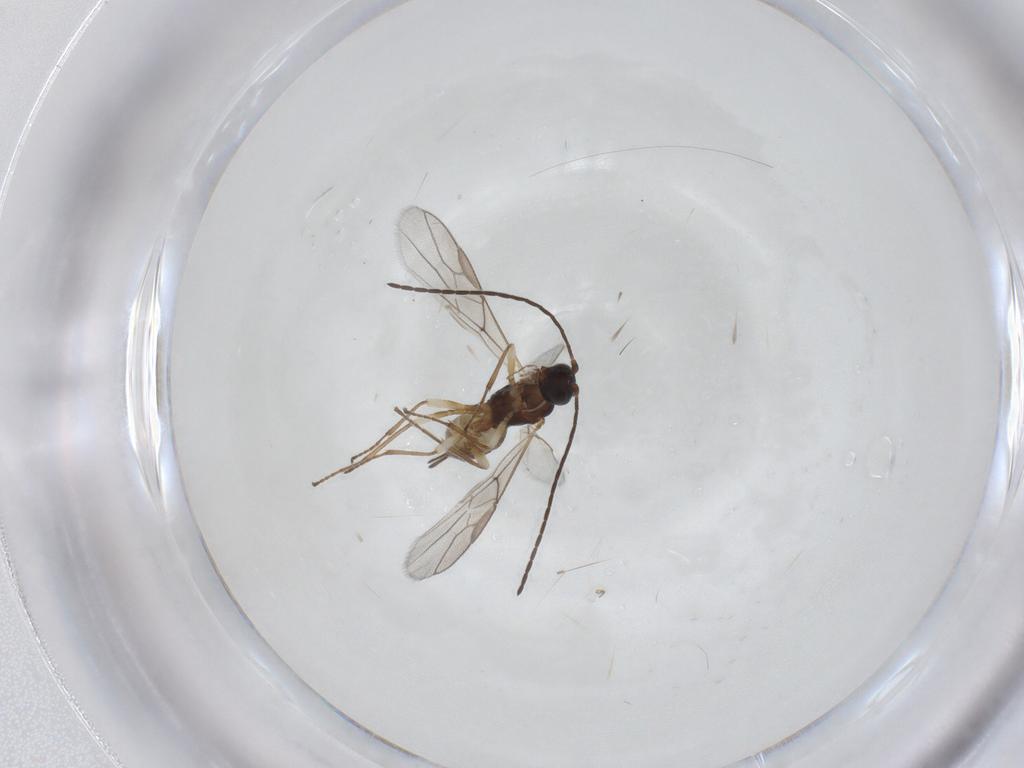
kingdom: Animalia
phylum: Arthropoda
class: Insecta
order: Hymenoptera
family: Braconidae
